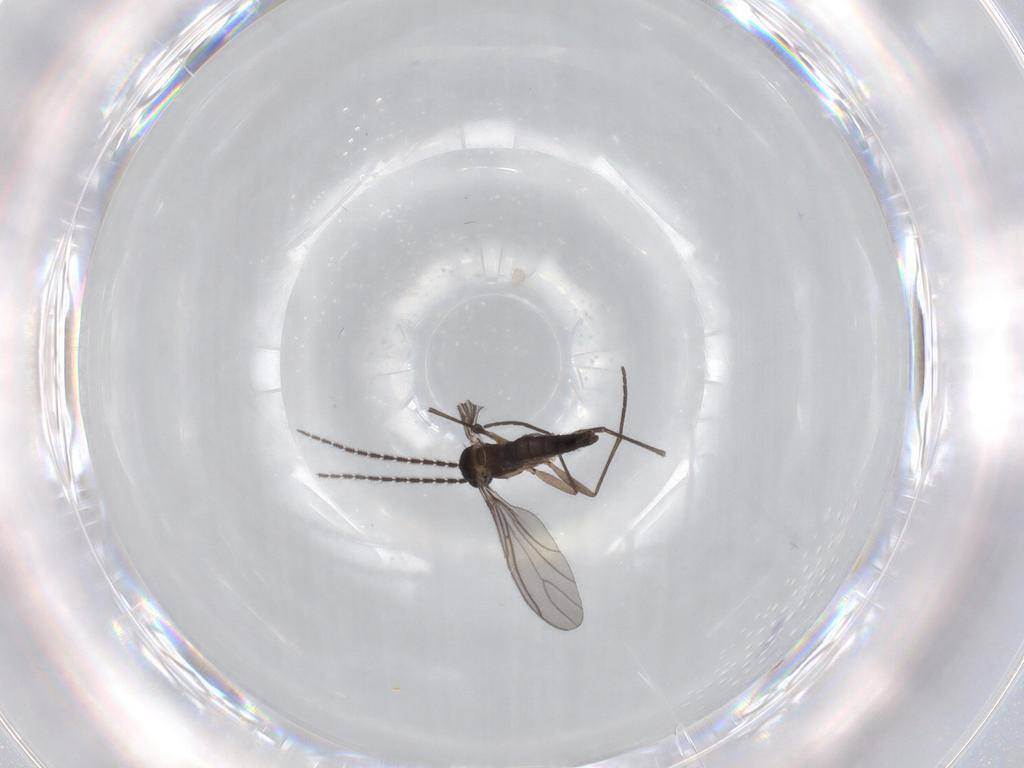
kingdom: Animalia
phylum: Arthropoda
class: Insecta
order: Diptera
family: Sciaridae
